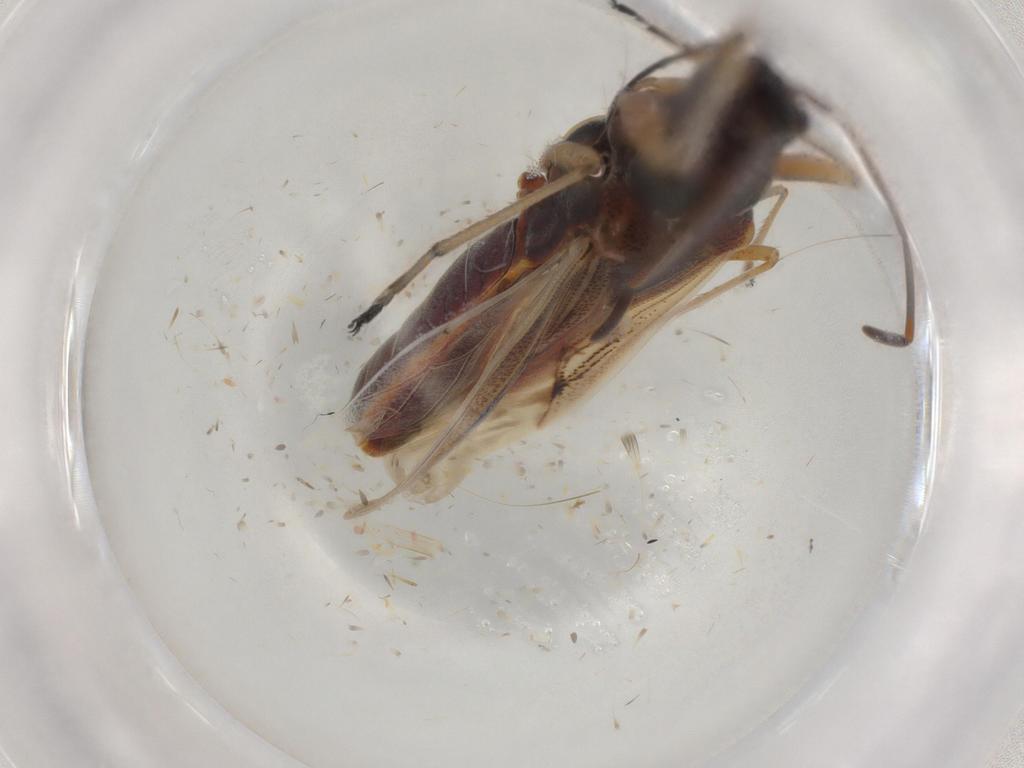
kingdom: Animalia
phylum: Arthropoda
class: Insecta
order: Hemiptera
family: Rhyparochromidae
